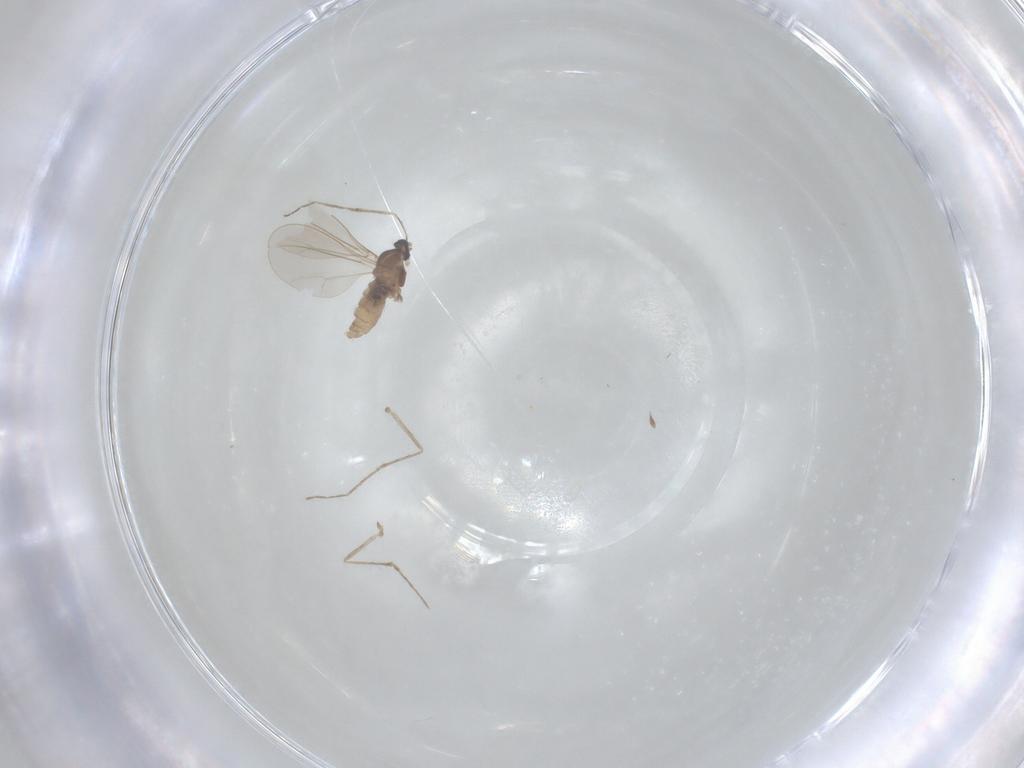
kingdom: Animalia
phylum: Arthropoda
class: Insecta
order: Diptera
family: Cecidomyiidae
